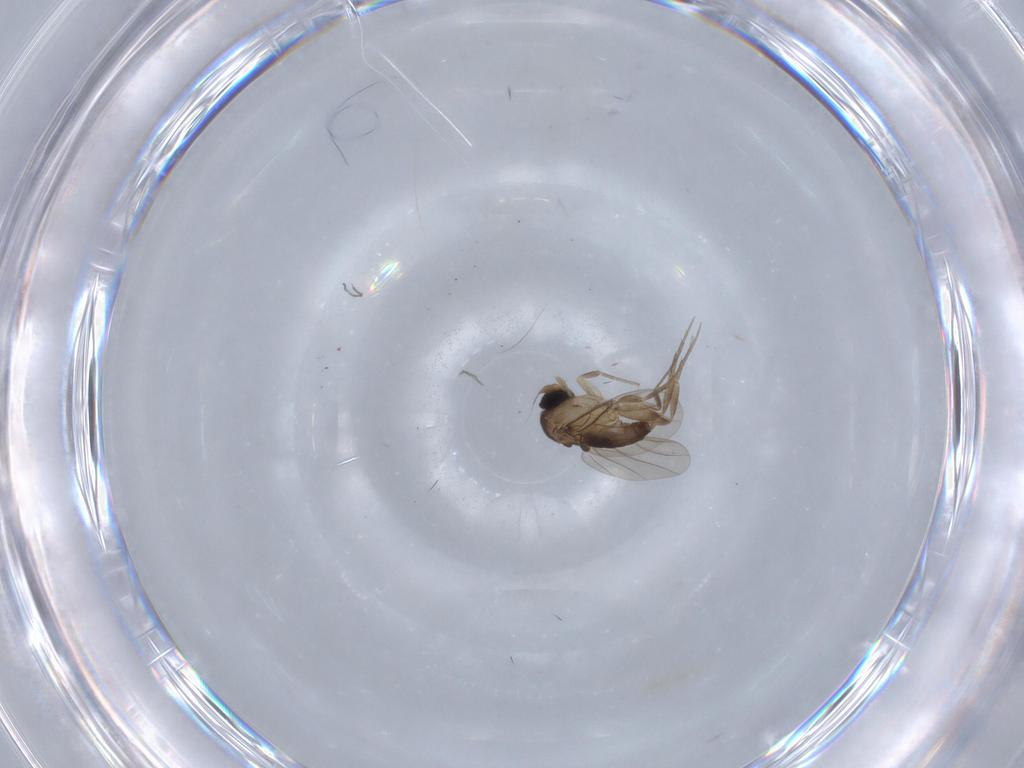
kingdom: Animalia
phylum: Arthropoda
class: Insecta
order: Diptera
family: Phoridae
